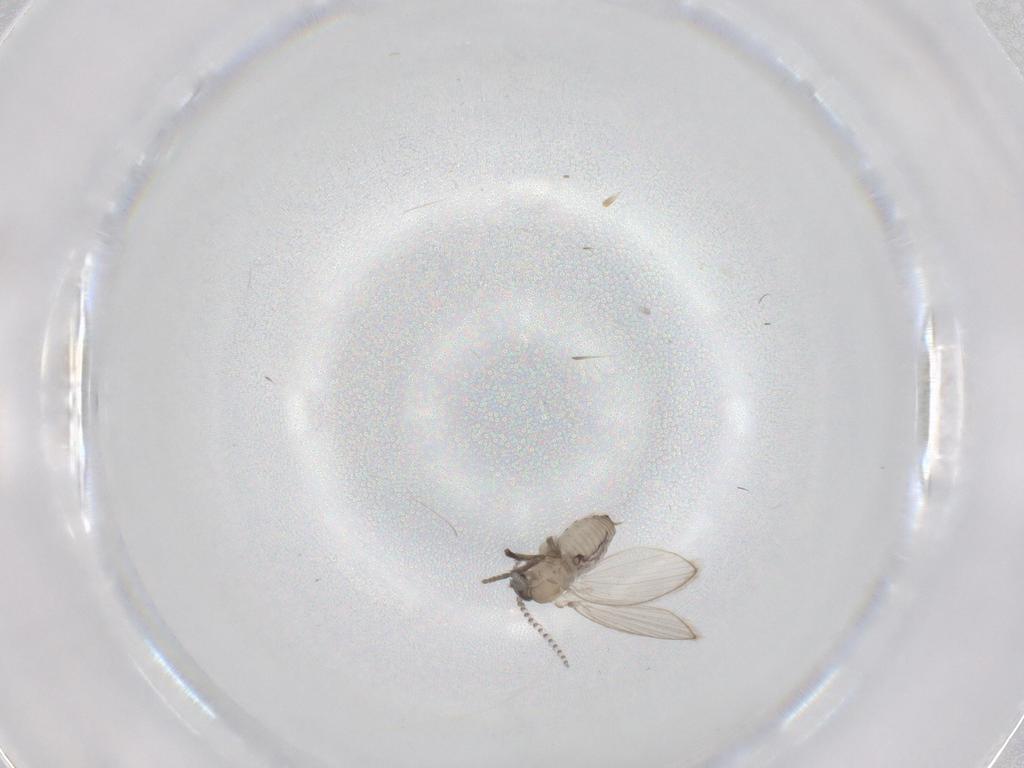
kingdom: Animalia
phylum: Arthropoda
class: Insecta
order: Diptera
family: Psychodidae
